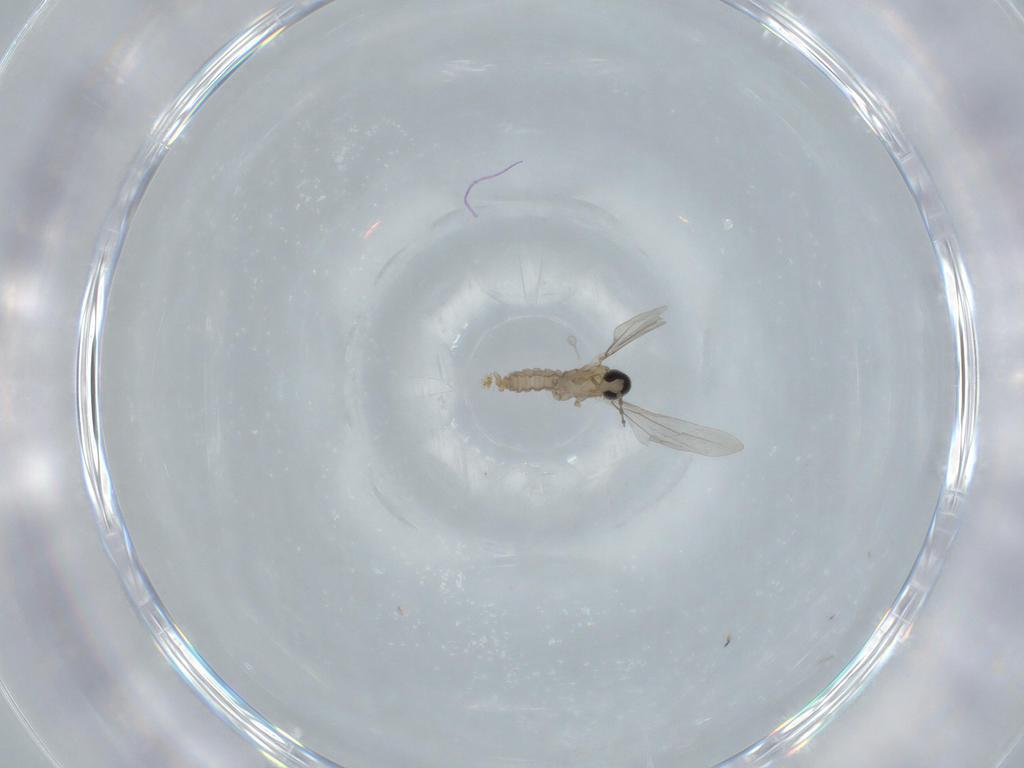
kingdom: Animalia
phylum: Arthropoda
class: Insecta
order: Diptera
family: Cecidomyiidae
